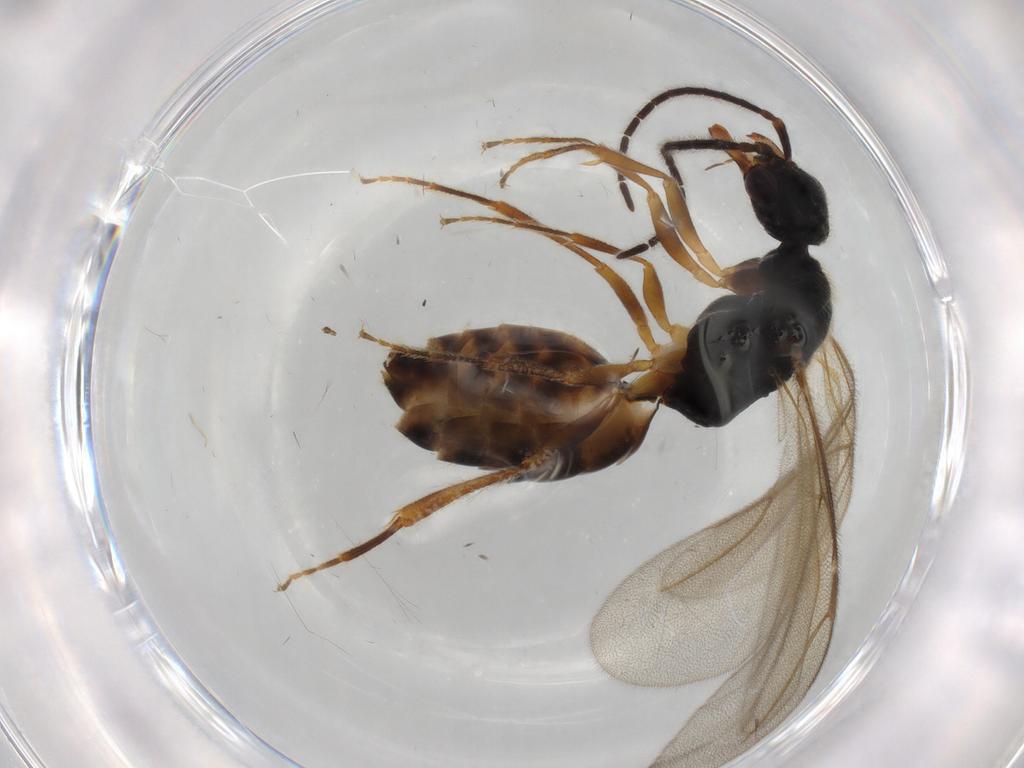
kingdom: Animalia
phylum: Arthropoda
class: Insecta
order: Hymenoptera
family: Bethylidae
